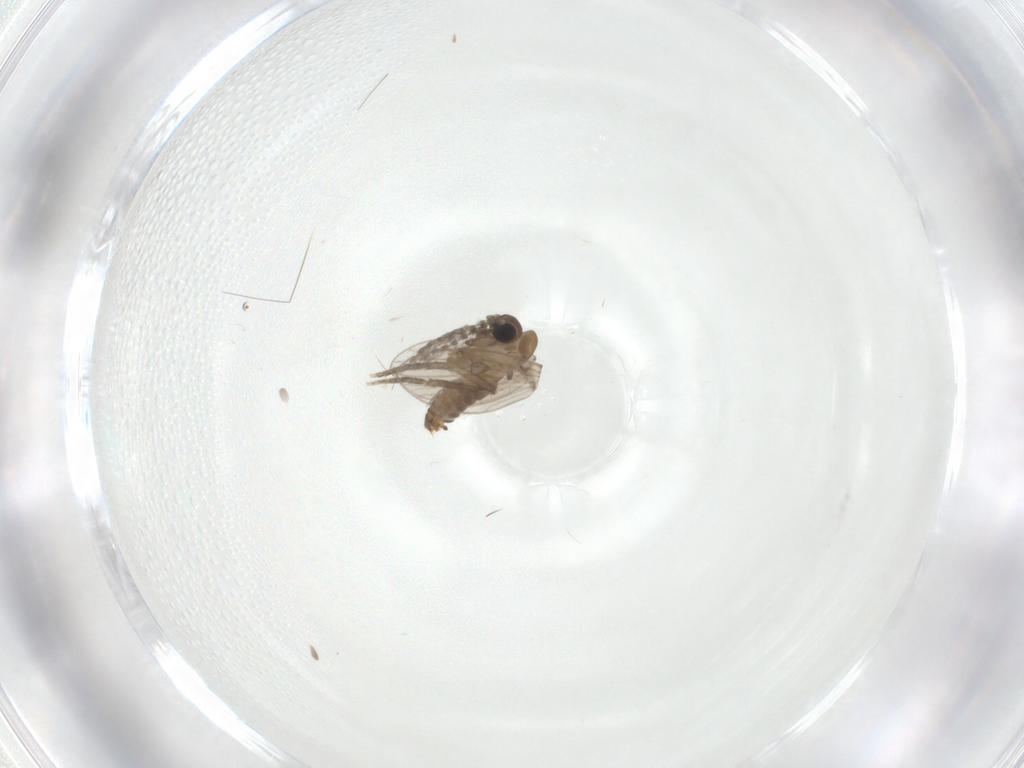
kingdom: Animalia
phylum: Arthropoda
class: Insecta
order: Diptera
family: Psychodidae
